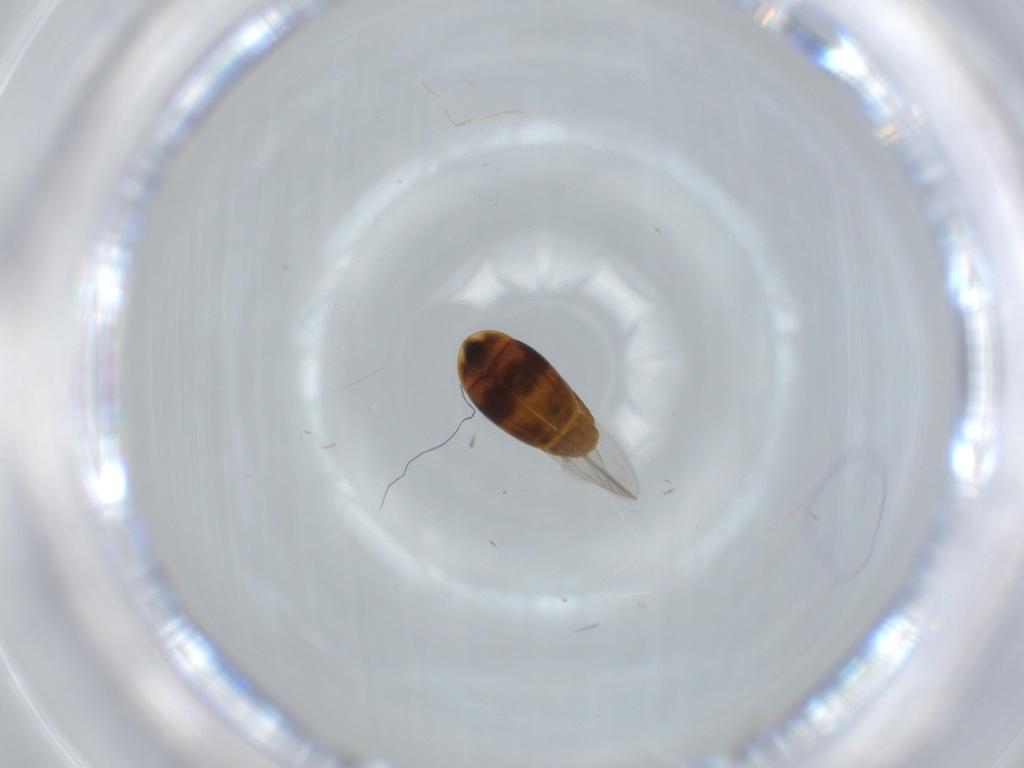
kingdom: Animalia
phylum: Arthropoda
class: Insecta
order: Coleoptera
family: Corylophidae
